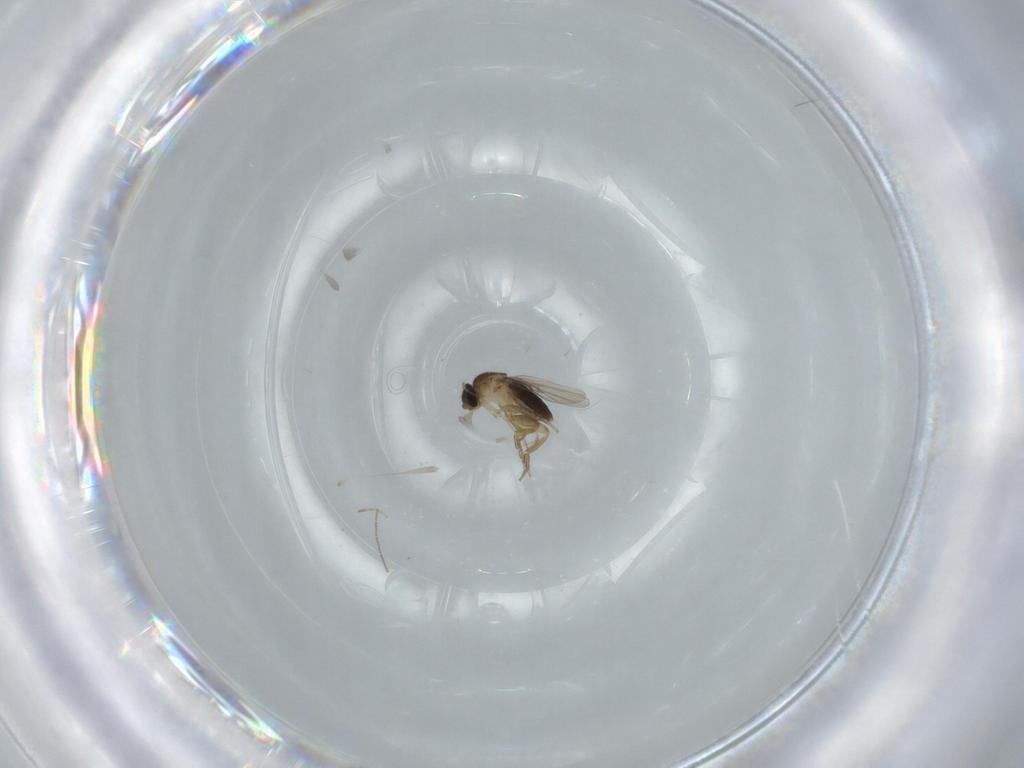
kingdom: Animalia
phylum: Arthropoda
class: Insecta
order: Diptera
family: Phoridae
